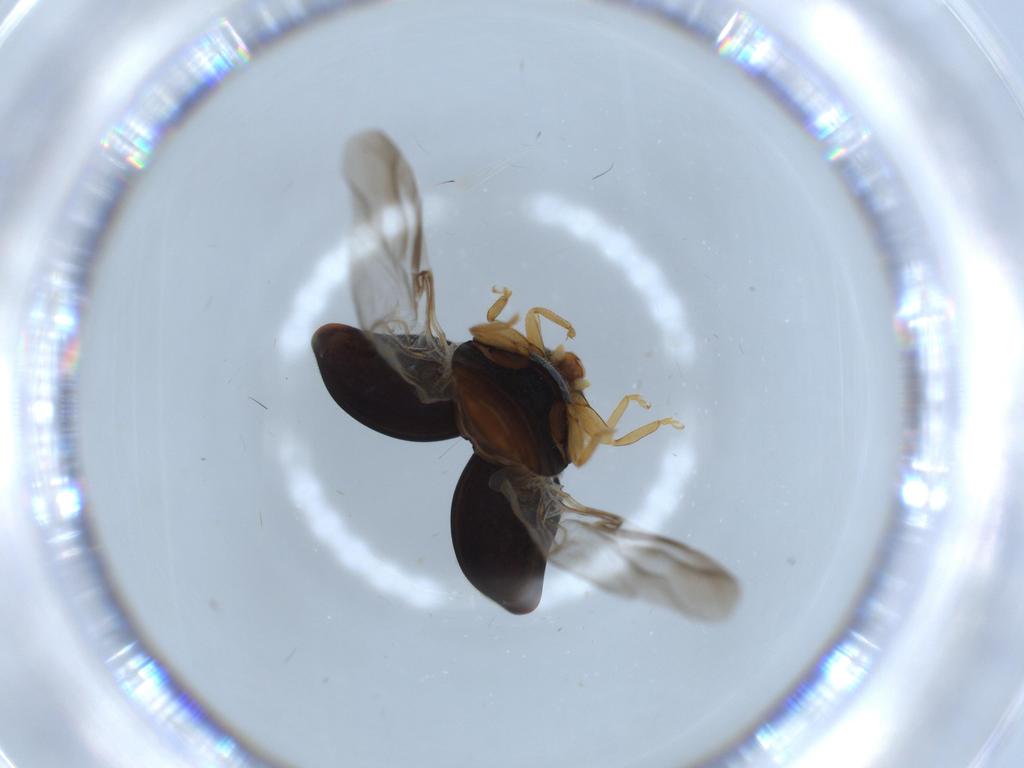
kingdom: Animalia
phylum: Arthropoda
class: Insecta
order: Coleoptera
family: Coccinellidae
